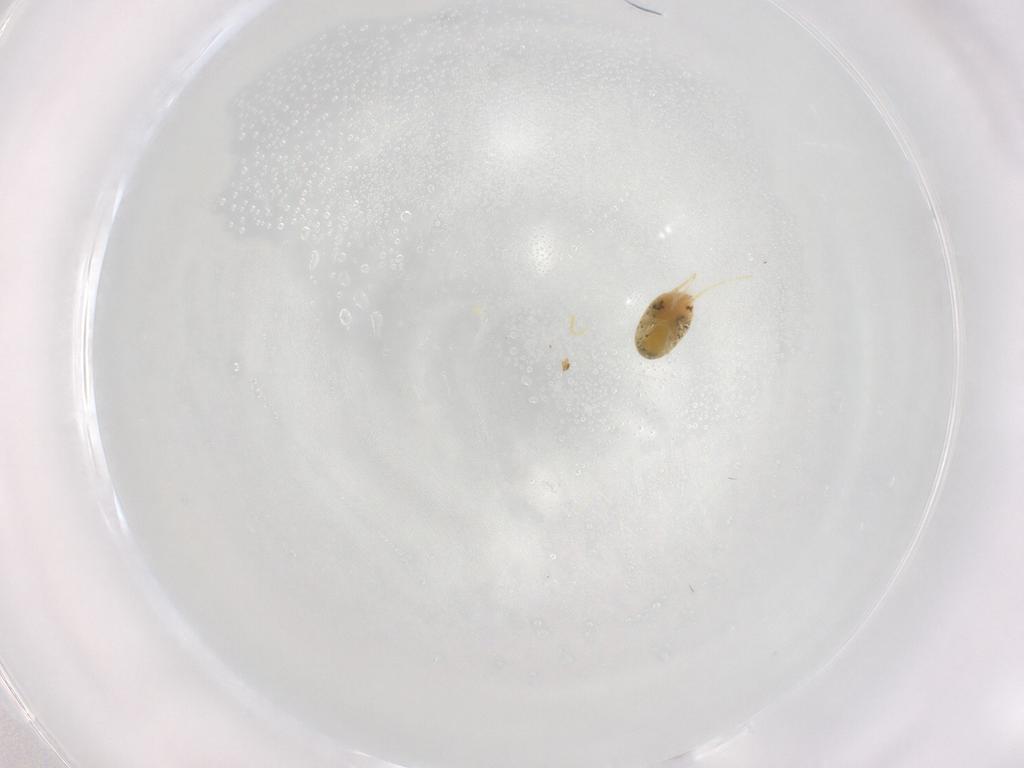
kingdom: Animalia
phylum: Arthropoda
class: Arachnida
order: Trombidiformes
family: Tetranychidae
